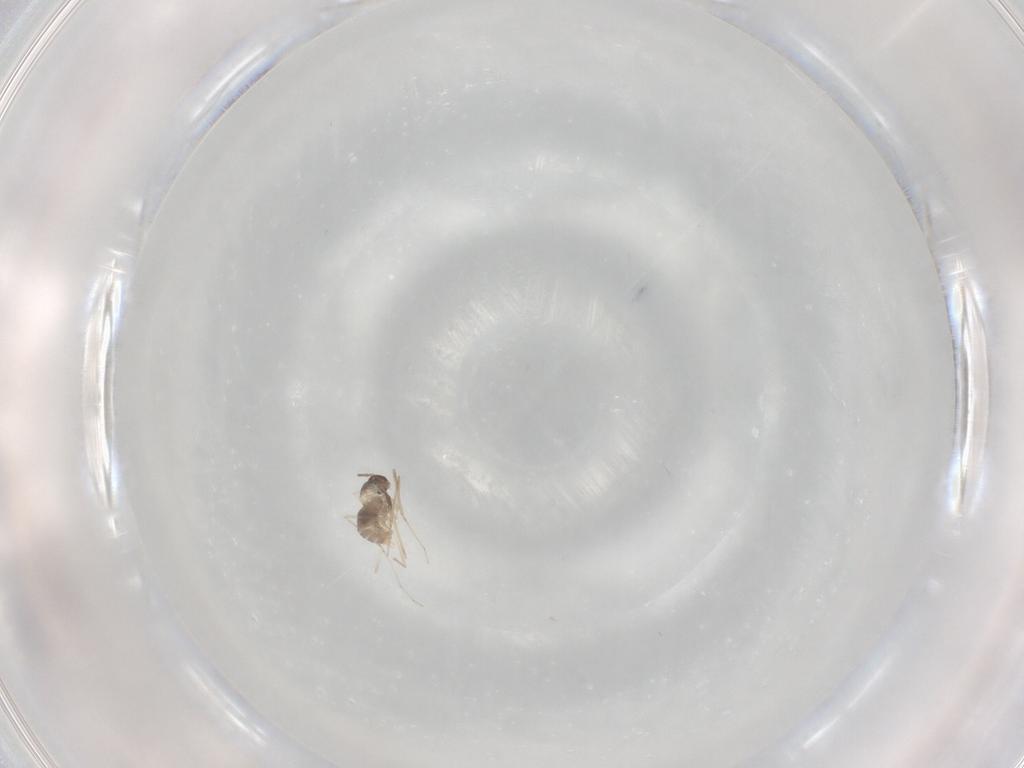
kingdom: Animalia
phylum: Arthropoda
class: Insecta
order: Diptera
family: Cecidomyiidae
